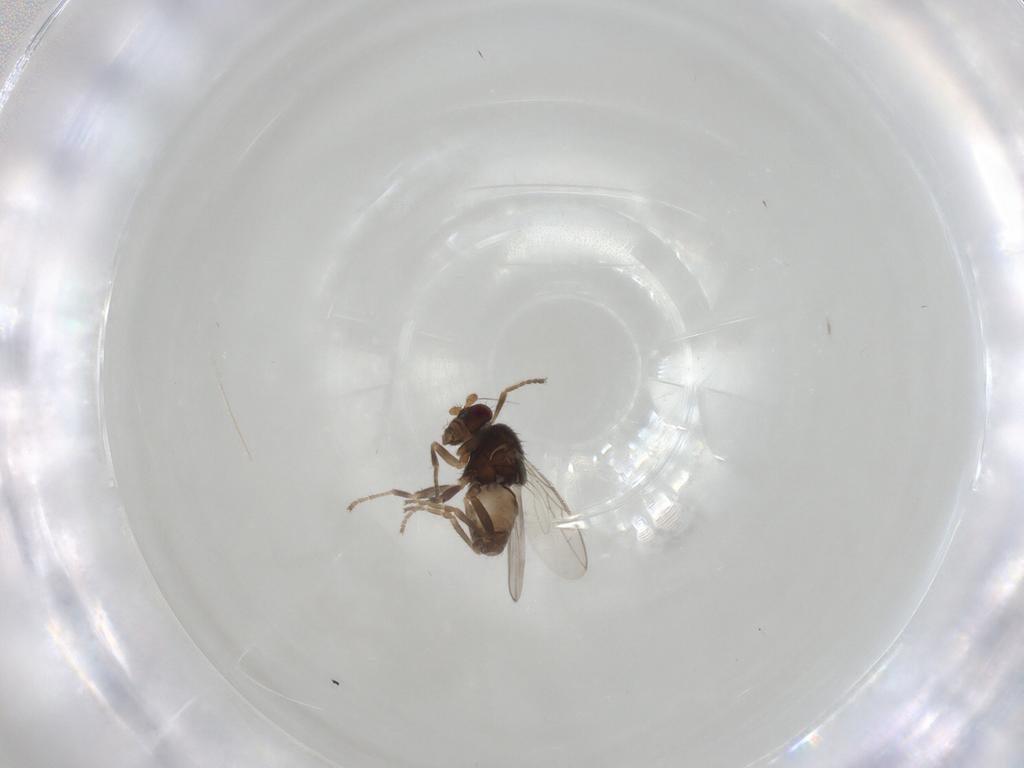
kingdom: Animalia
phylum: Arthropoda
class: Insecta
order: Diptera
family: Sphaeroceridae
